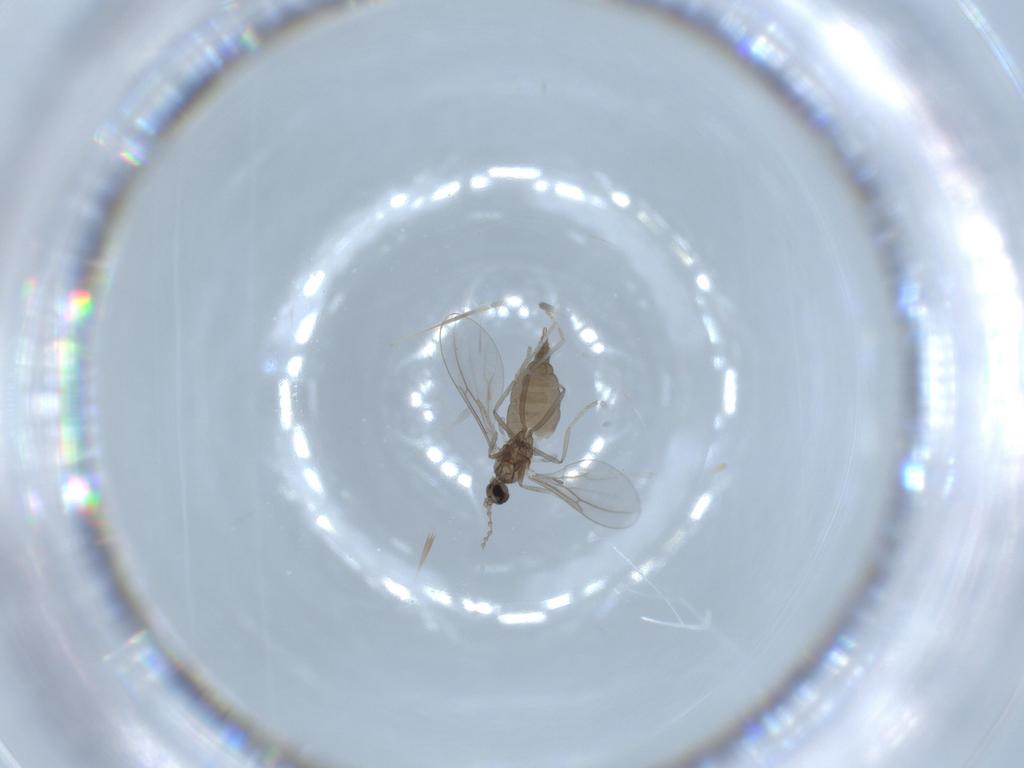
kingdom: Animalia
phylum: Arthropoda
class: Insecta
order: Diptera
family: Cecidomyiidae
